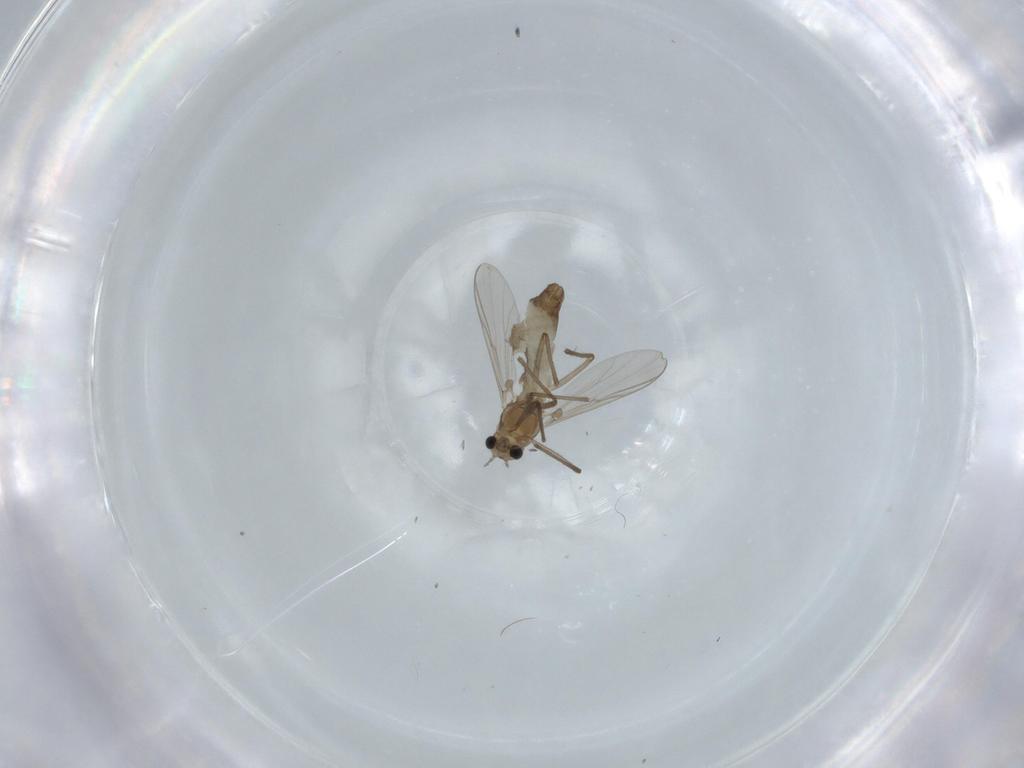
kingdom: Animalia
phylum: Arthropoda
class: Insecta
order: Diptera
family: Chironomidae
